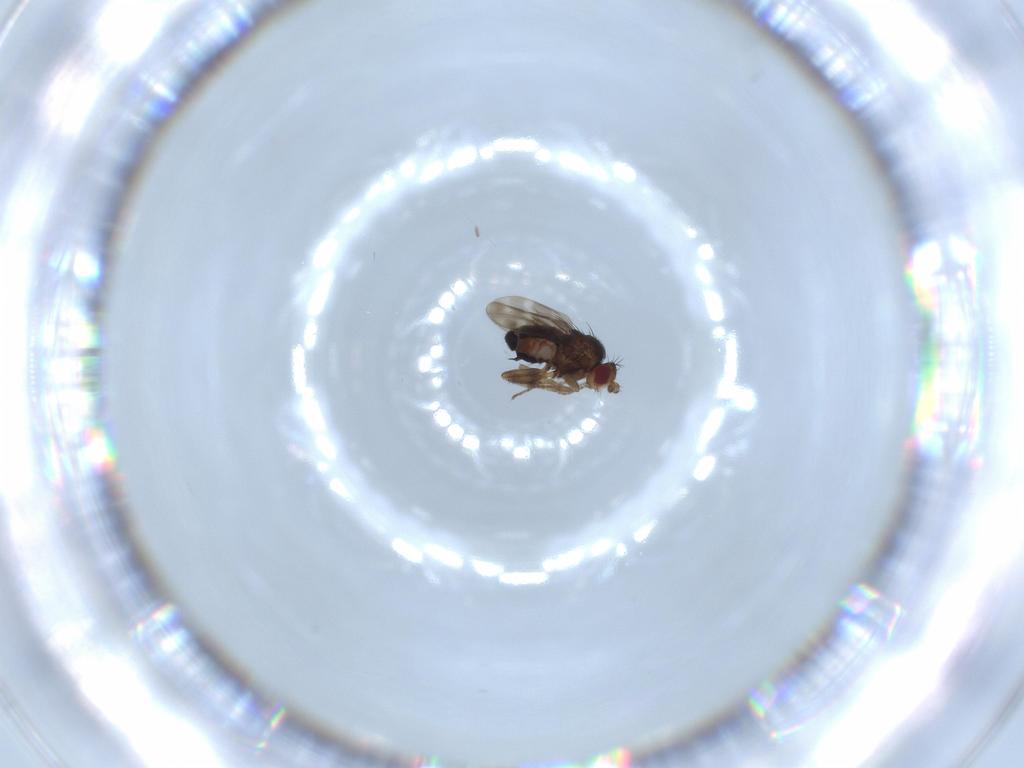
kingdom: Animalia
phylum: Arthropoda
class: Insecta
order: Diptera
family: Sphaeroceridae
